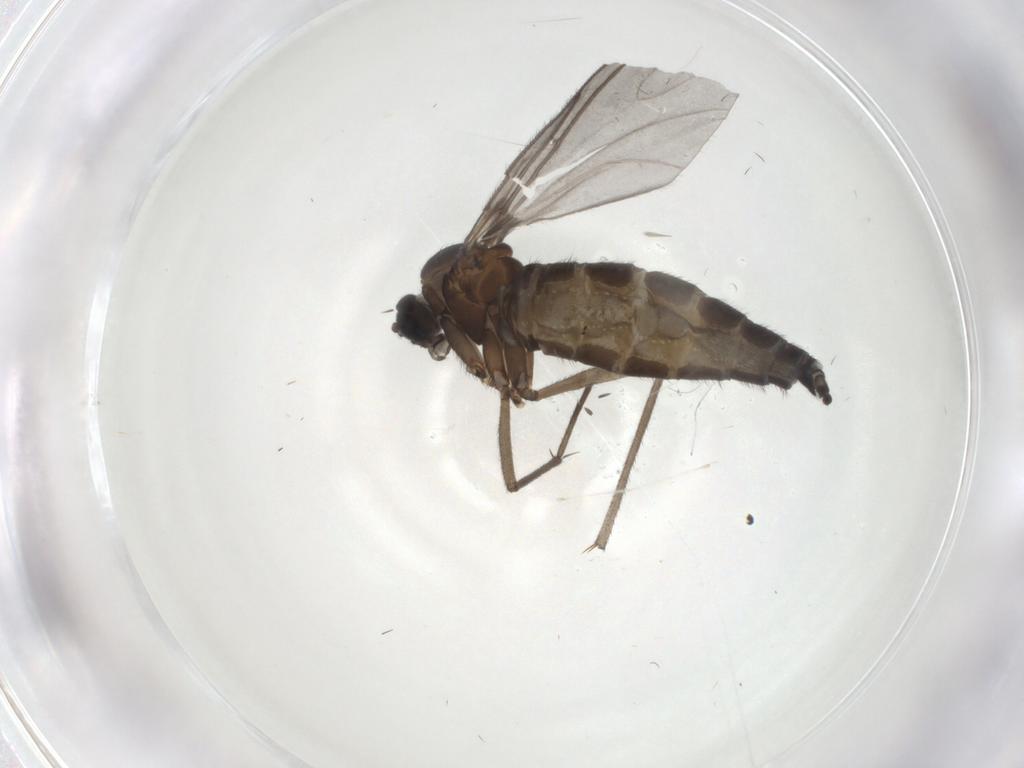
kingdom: Animalia
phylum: Arthropoda
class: Insecta
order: Diptera
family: Sciaridae
